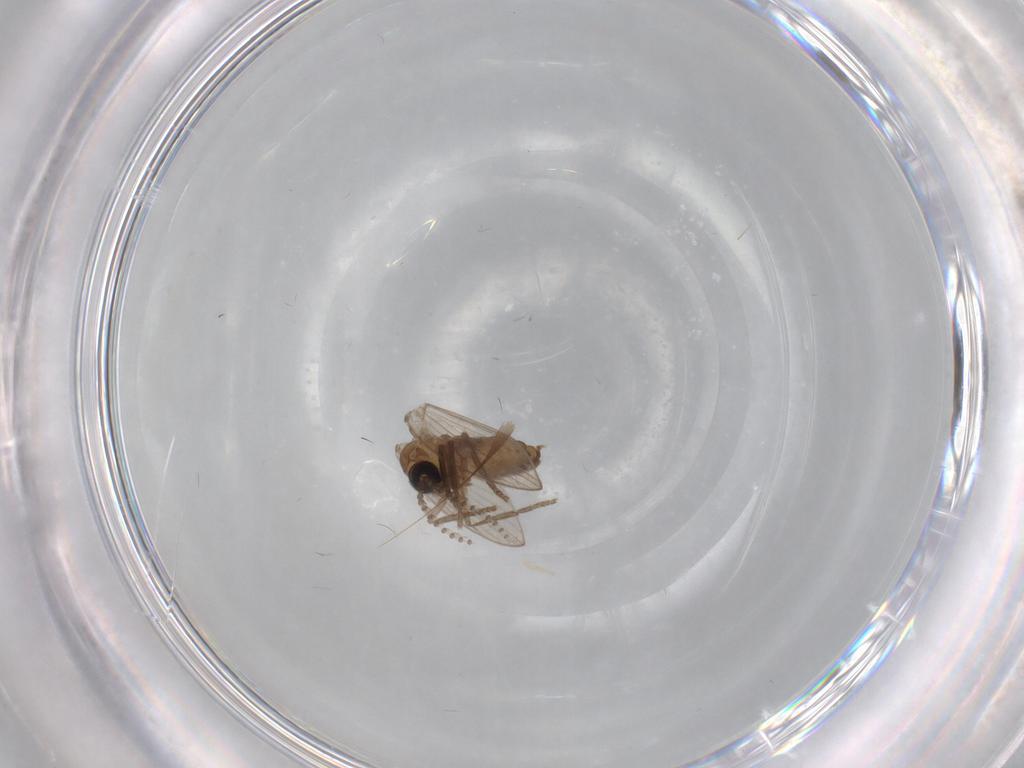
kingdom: Animalia
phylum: Arthropoda
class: Insecta
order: Diptera
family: Psychodidae
